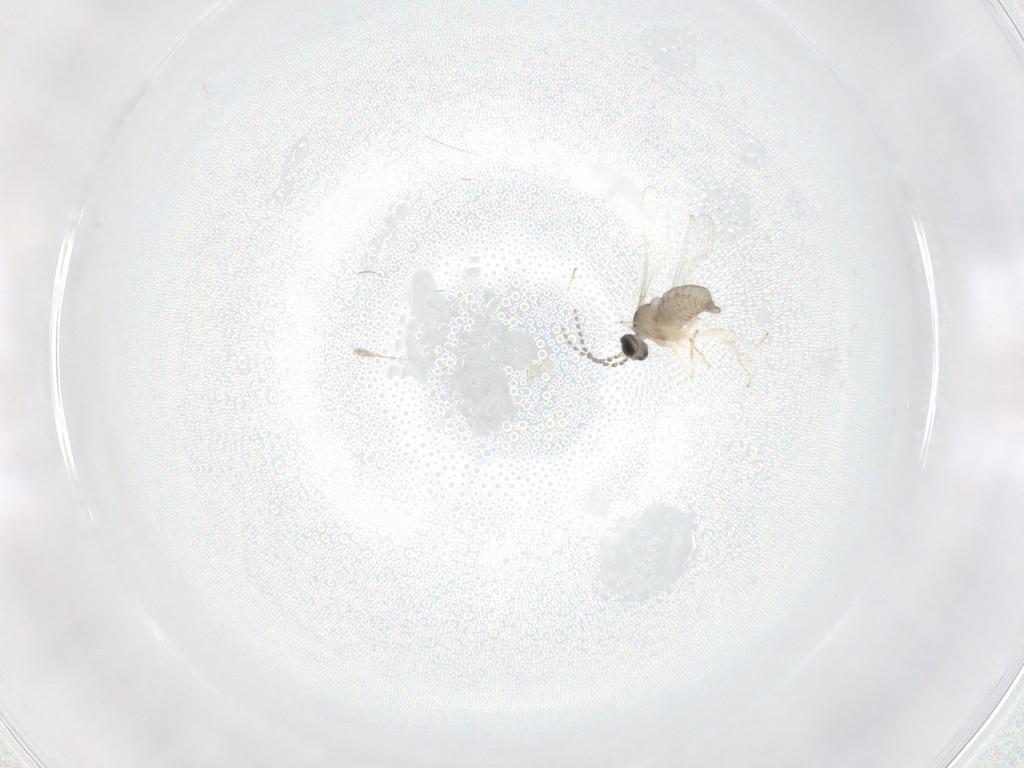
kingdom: Animalia
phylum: Arthropoda
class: Insecta
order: Diptera
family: Cecidomyiidae
